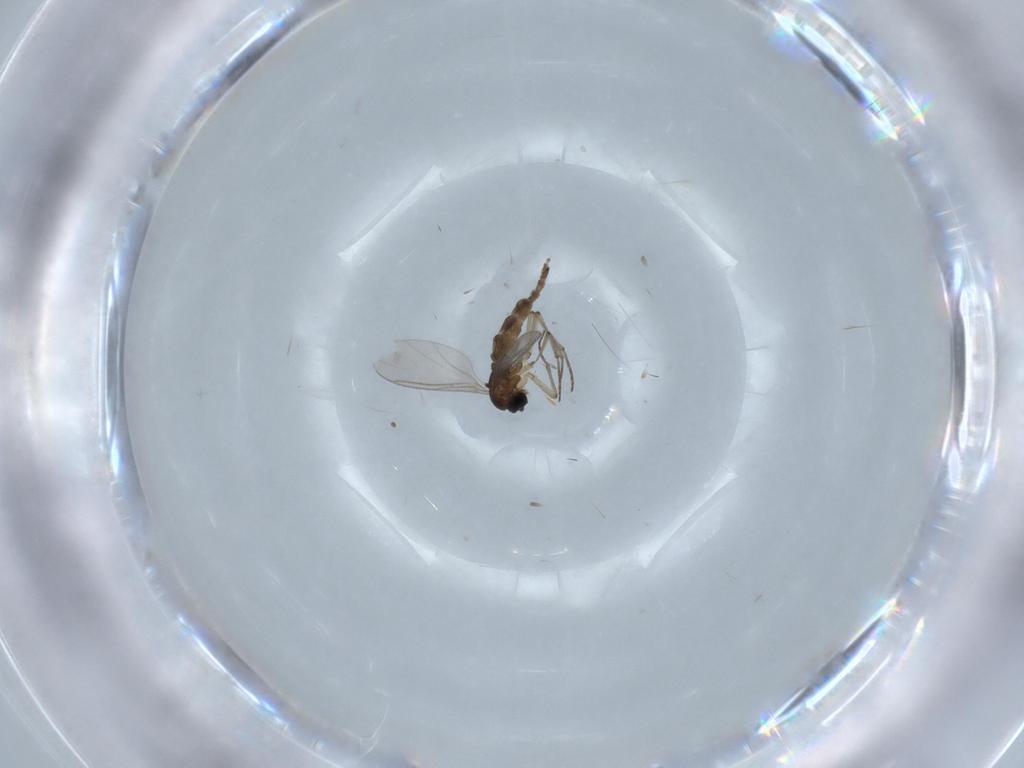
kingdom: Animalia
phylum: Arthropoda
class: Insecta
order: Diptera
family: Sciaridae
